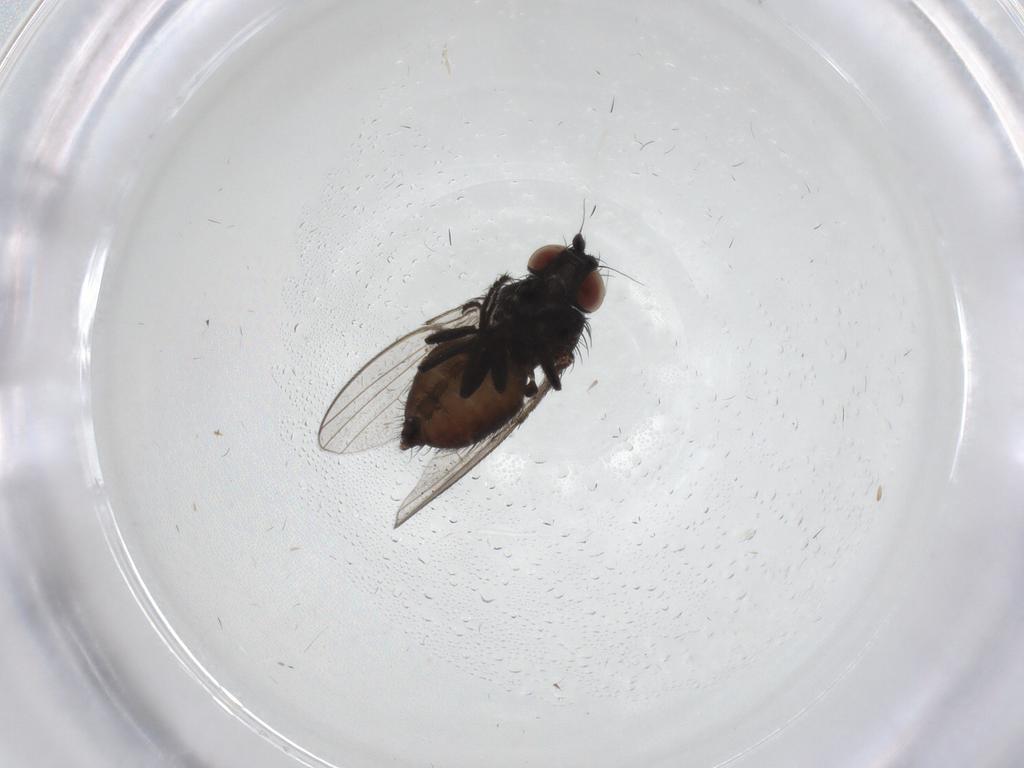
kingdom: Animalia
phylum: Arthropoda
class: Insecta
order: Diptera
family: Milichiidae
